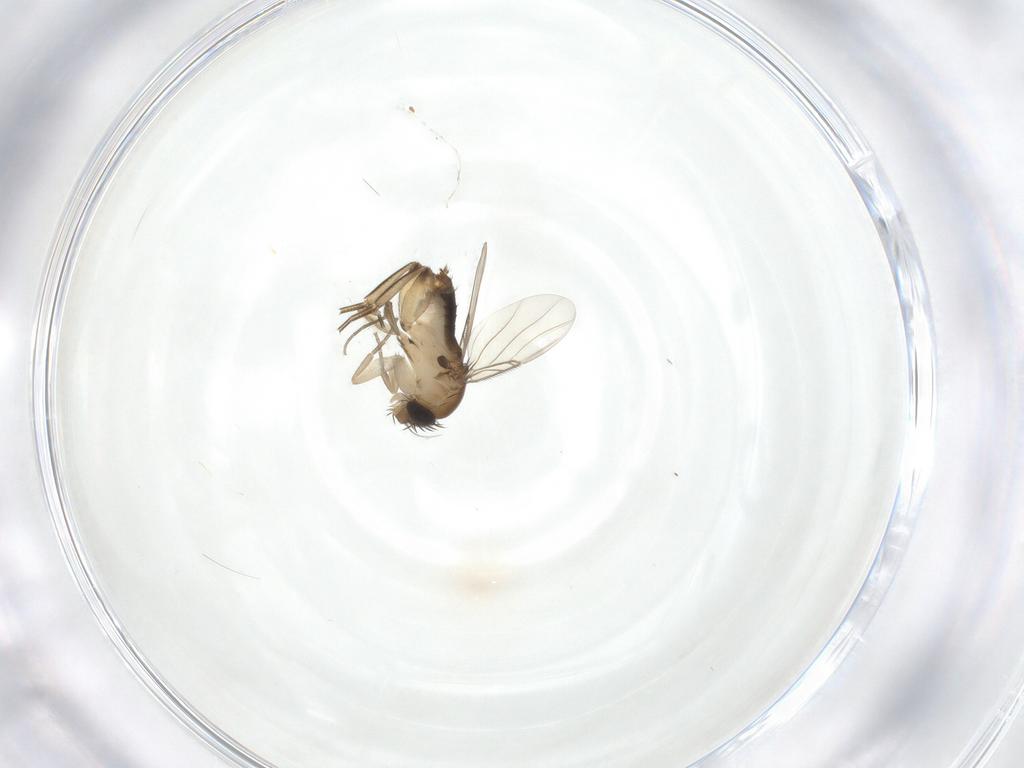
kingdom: Animalia
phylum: Arthropoda
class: Insecta
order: Diptera
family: Phoridae
